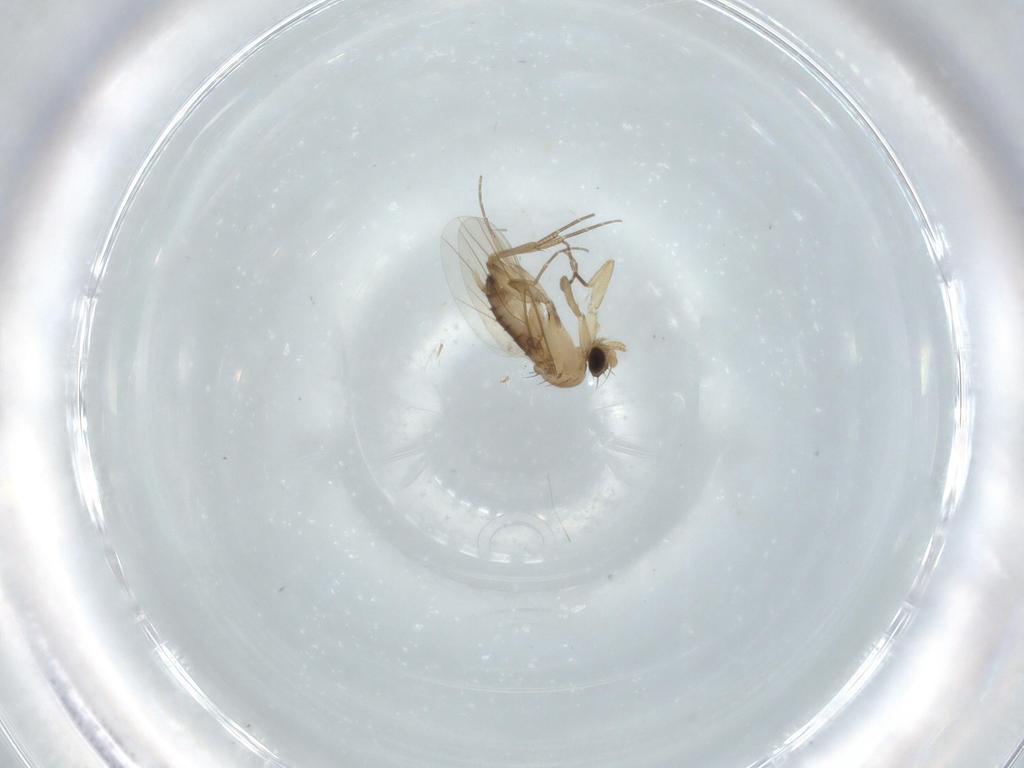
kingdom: Animalia
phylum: Arthropoda
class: Insecta
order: Diptera
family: Phoridae
